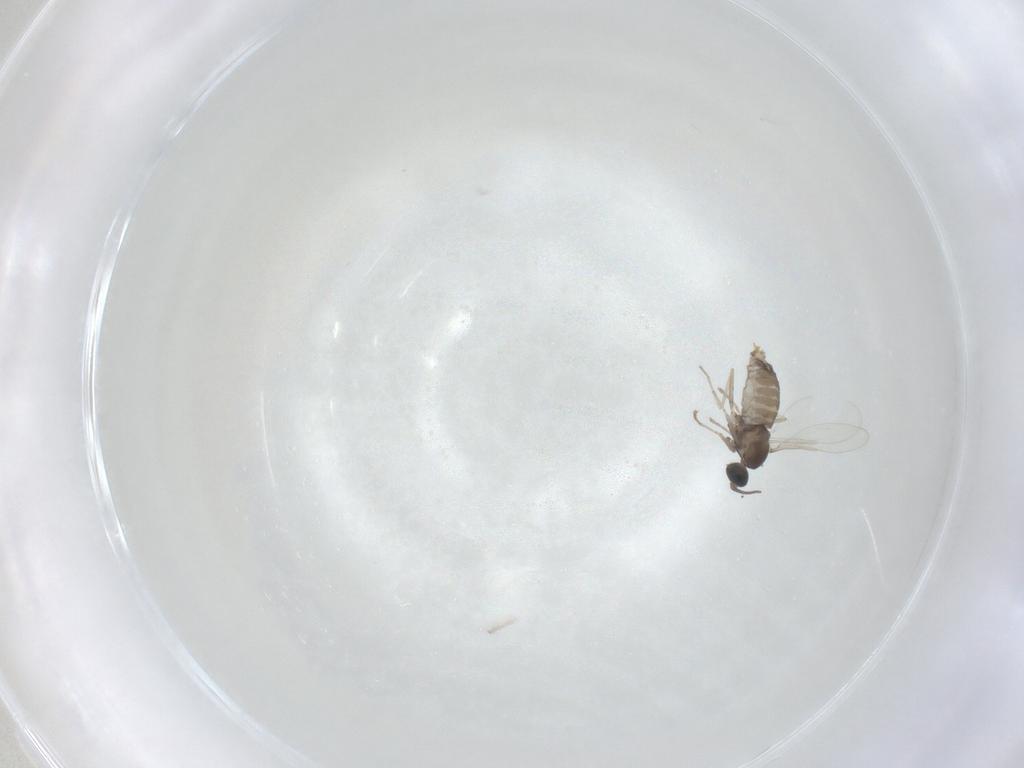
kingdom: Animalia
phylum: Arthropoda
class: Insecta
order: Diptera
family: Cecidomyiidae
